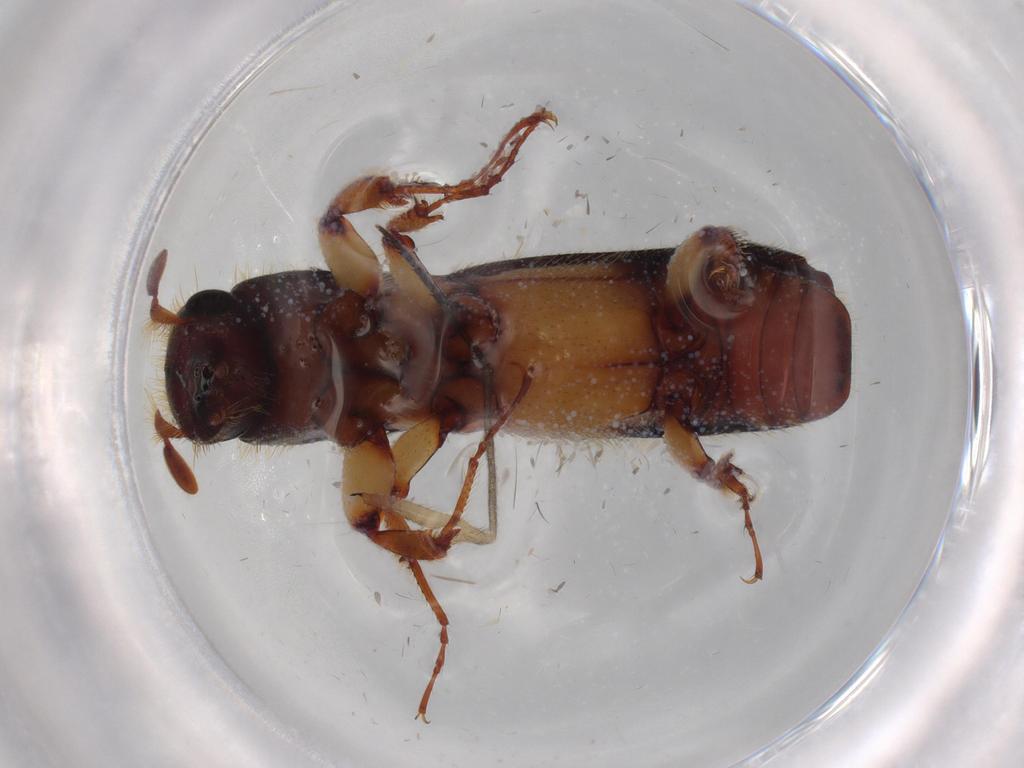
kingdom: Animalia
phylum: Arthropoda
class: Insecta
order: Coleoptera
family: Curculionidae
